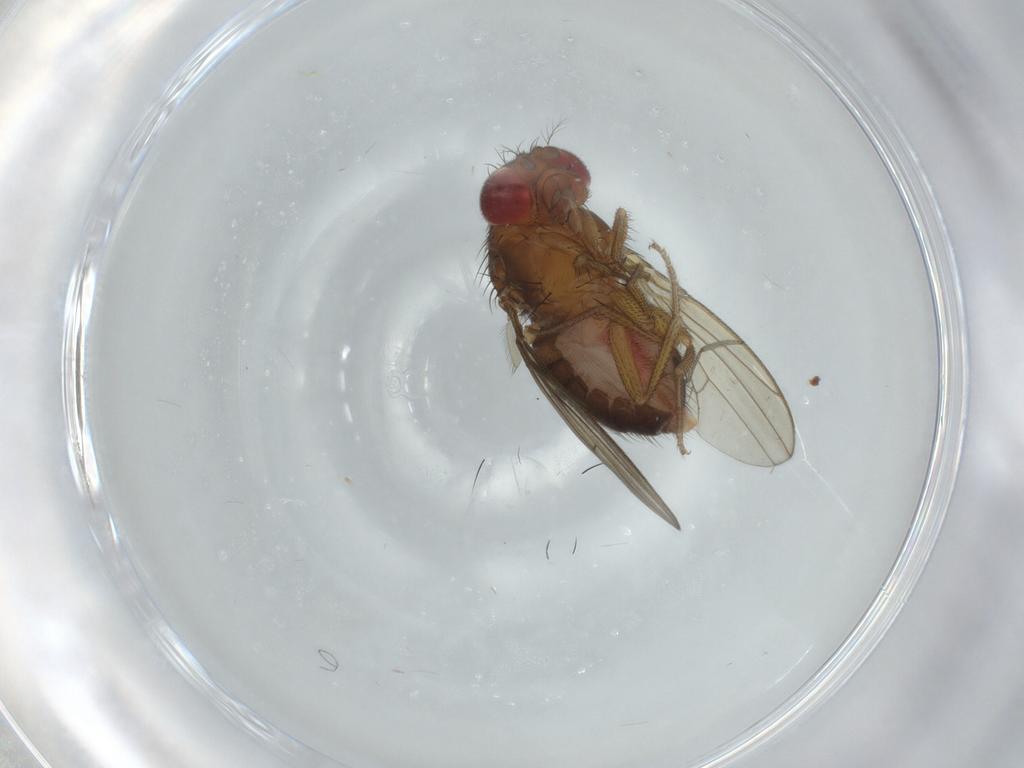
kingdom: Animalia
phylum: Arthropoda
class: Insecta
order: Diptera
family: Drosophilidae
